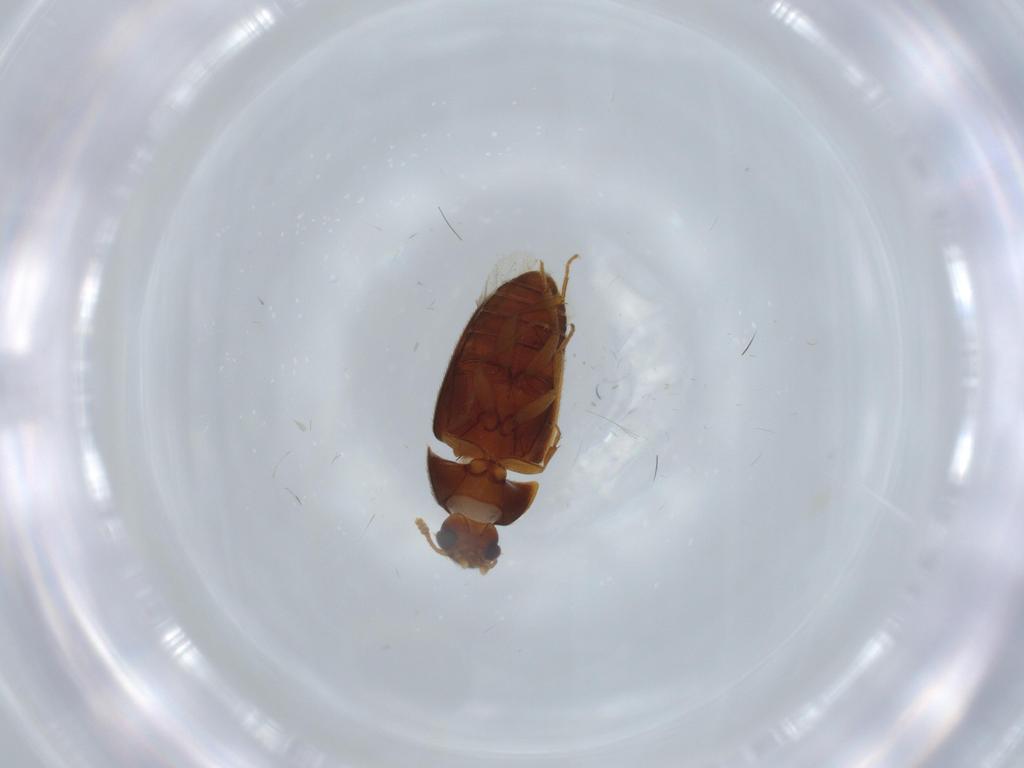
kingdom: Animalia
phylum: Arthropoda
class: Insecta
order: Coleoptera
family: Mycetophagidae
